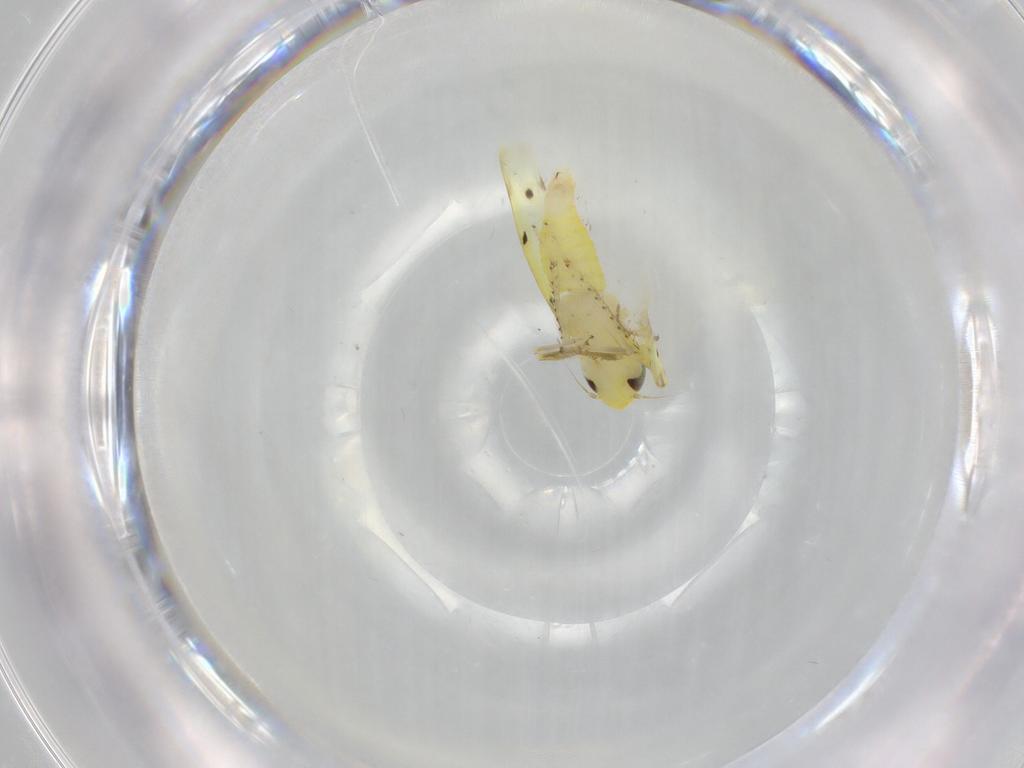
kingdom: Animalia
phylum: Arthropoda
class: Insecta
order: Hemiptera
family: Cicadellidae
